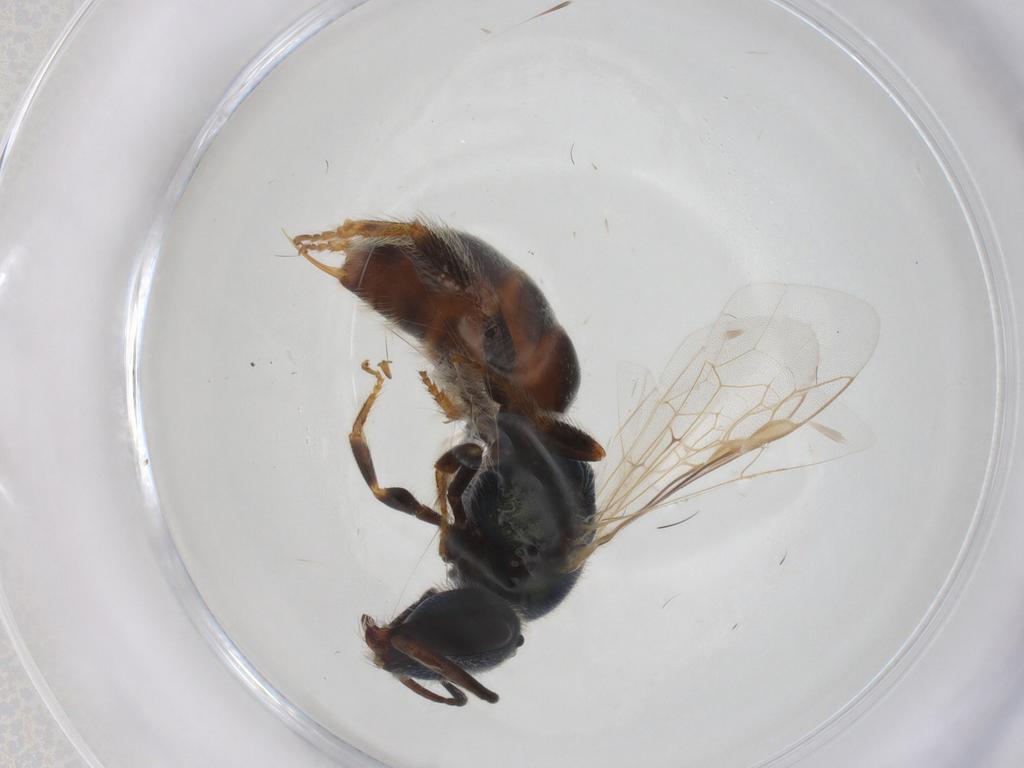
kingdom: Animalia
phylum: Arthropoda
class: Insecta
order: Hymenoptera
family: Halictidae
